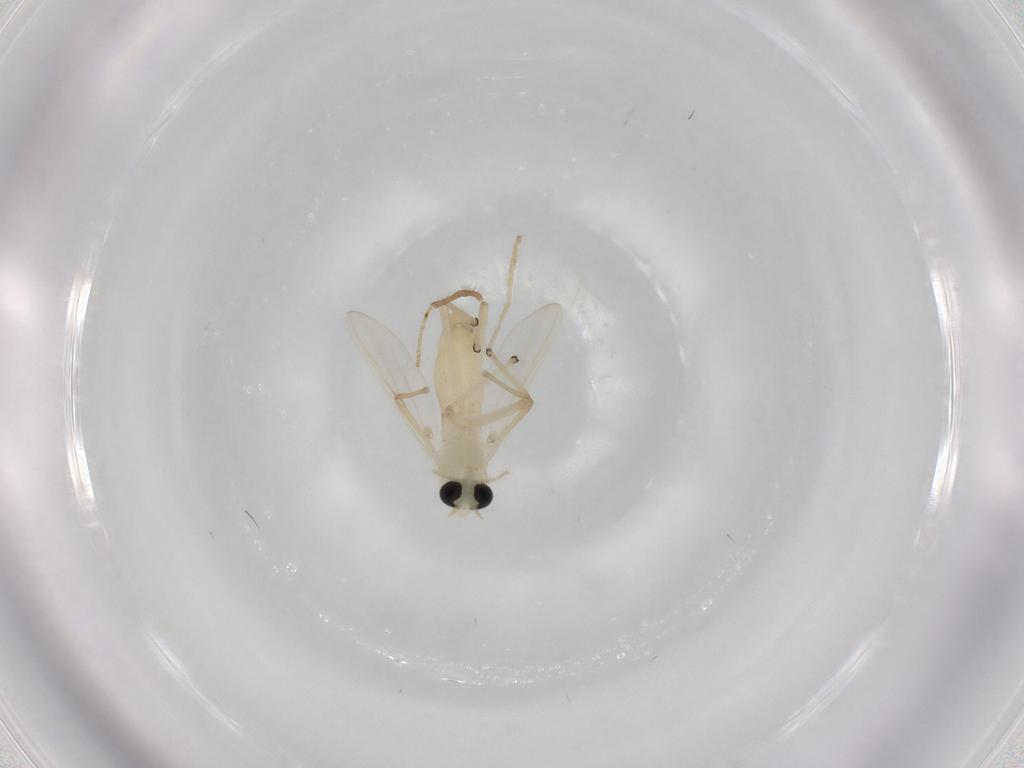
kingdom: Animalia
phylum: Arthropoda
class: Insecta
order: Diptera
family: Chironomidae
